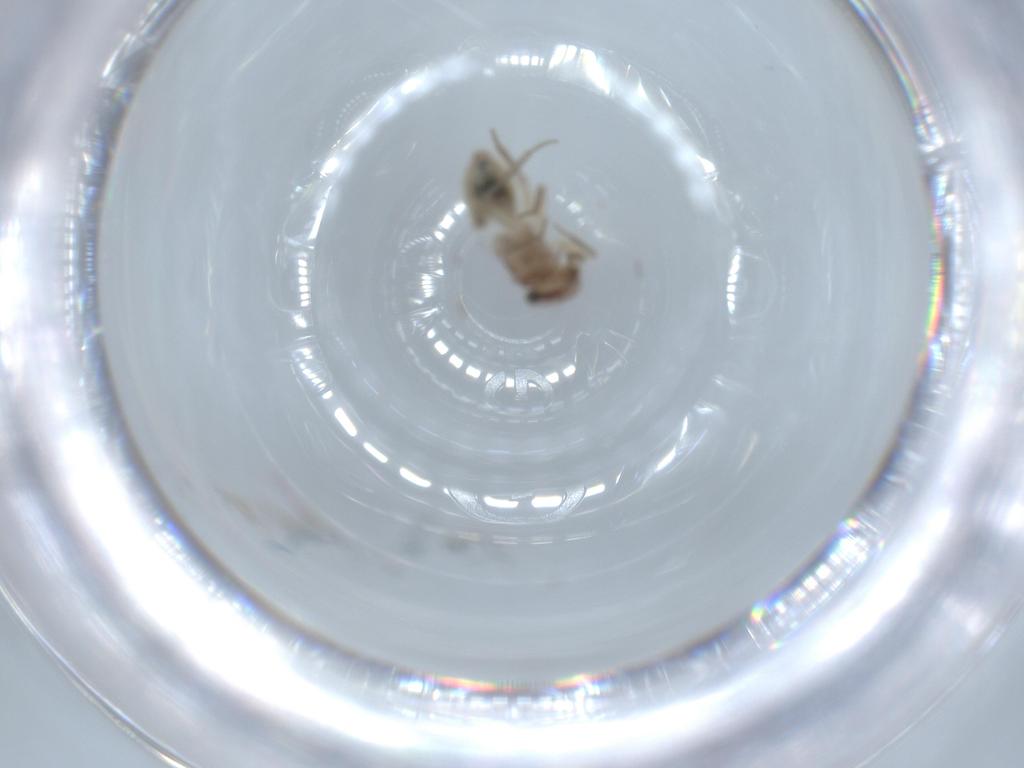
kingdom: Animalia
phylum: Arthropoda
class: Insecta
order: Psocodea
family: Lepidopsocidae
